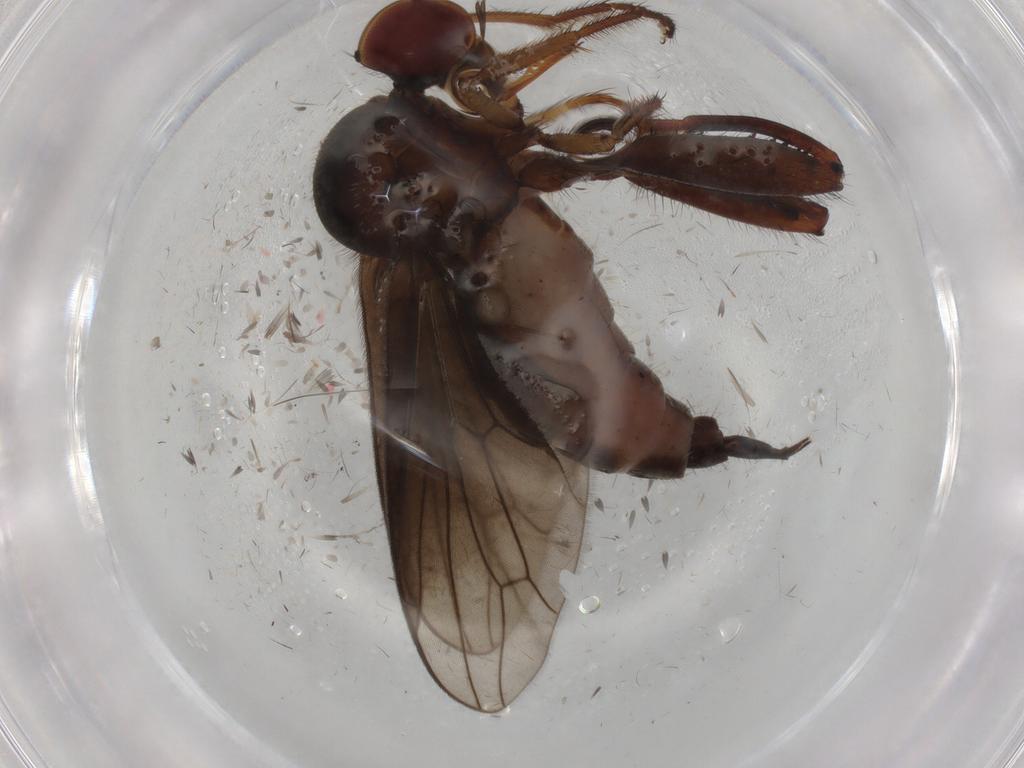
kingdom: Animalia
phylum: Arthropoda
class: Insecta
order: Diptera
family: Hybotidae
